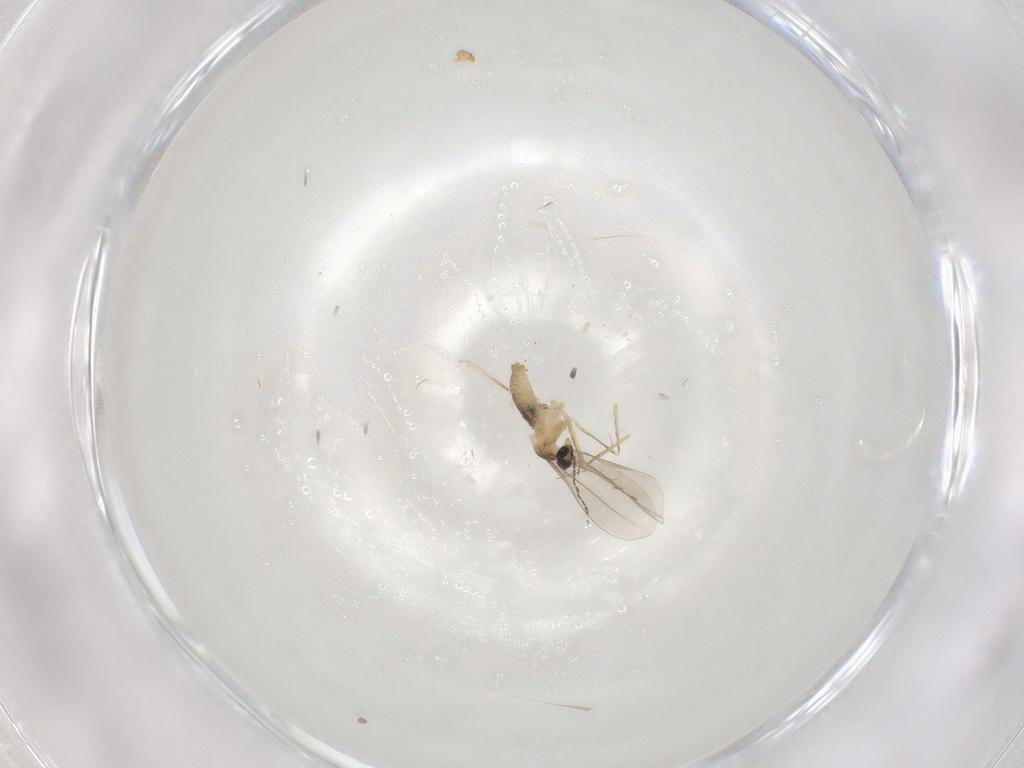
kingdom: Animalia
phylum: Arthropoda
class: Insecta
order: Diptera
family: Cecidomyiidae
